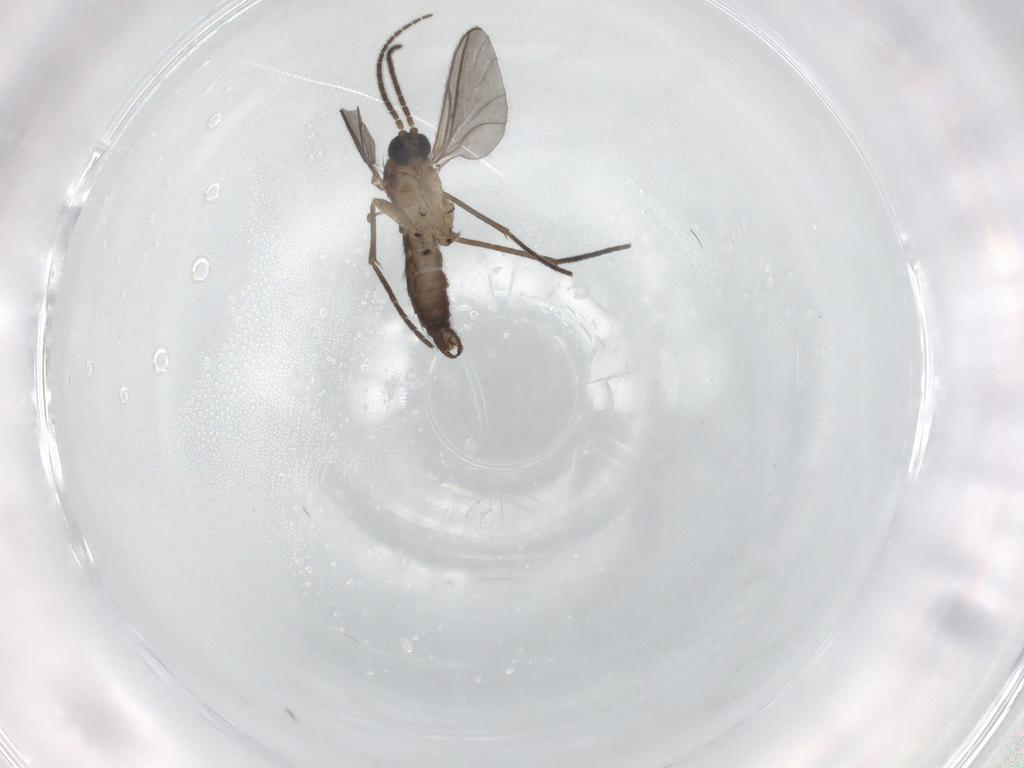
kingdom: Animalia
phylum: Arthropoda
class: Insecta
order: Diptera
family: Sciaridae
